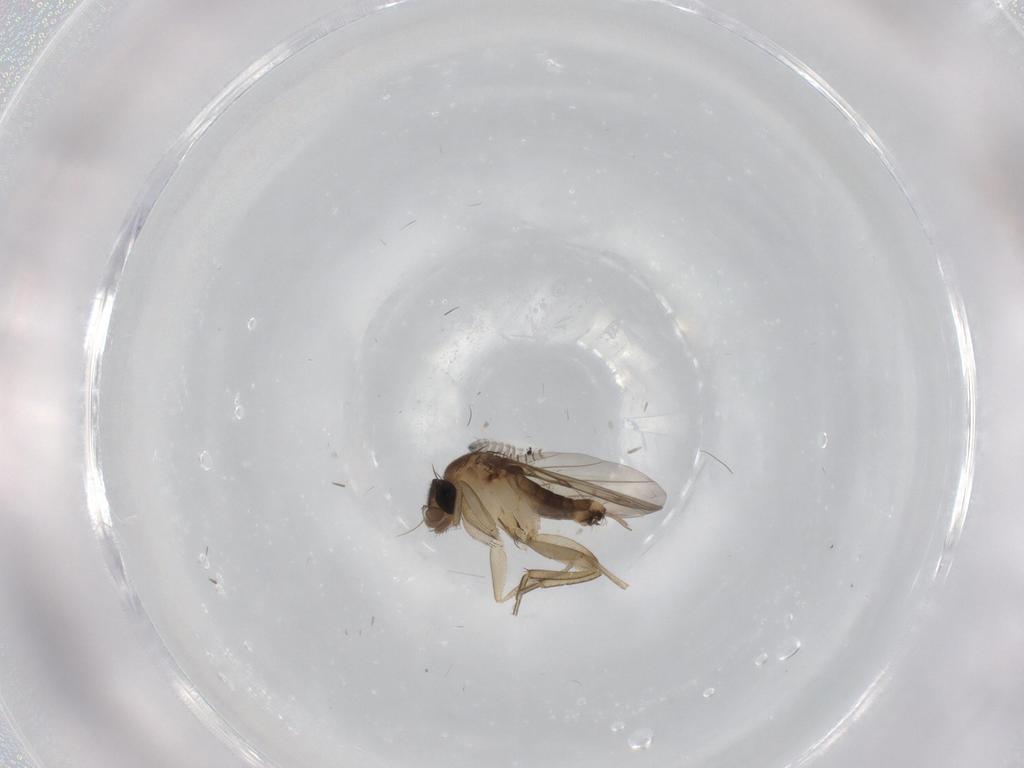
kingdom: Animalia
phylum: Arthropoda
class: Insecta
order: Diptera
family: Phoridae
